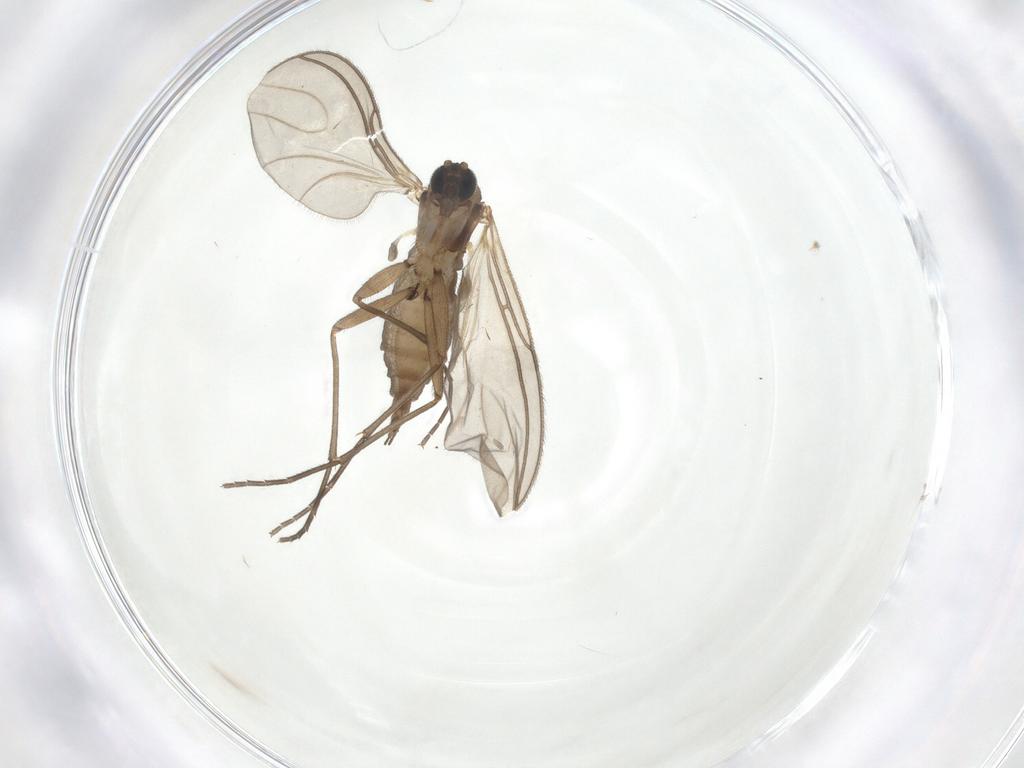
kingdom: Animalia
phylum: Arthropoda
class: Insecta
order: Diptera
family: Sciaridae
